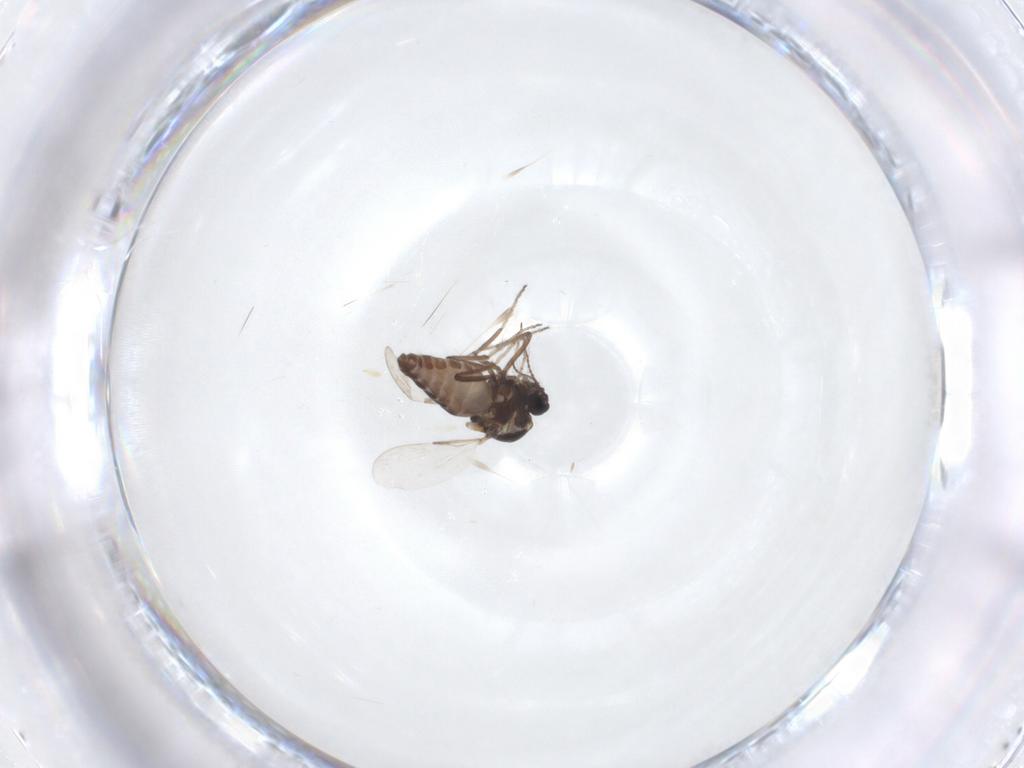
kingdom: Animalia
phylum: Arthropoda
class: Insecta
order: Diptera
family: Ceratopogonidae
